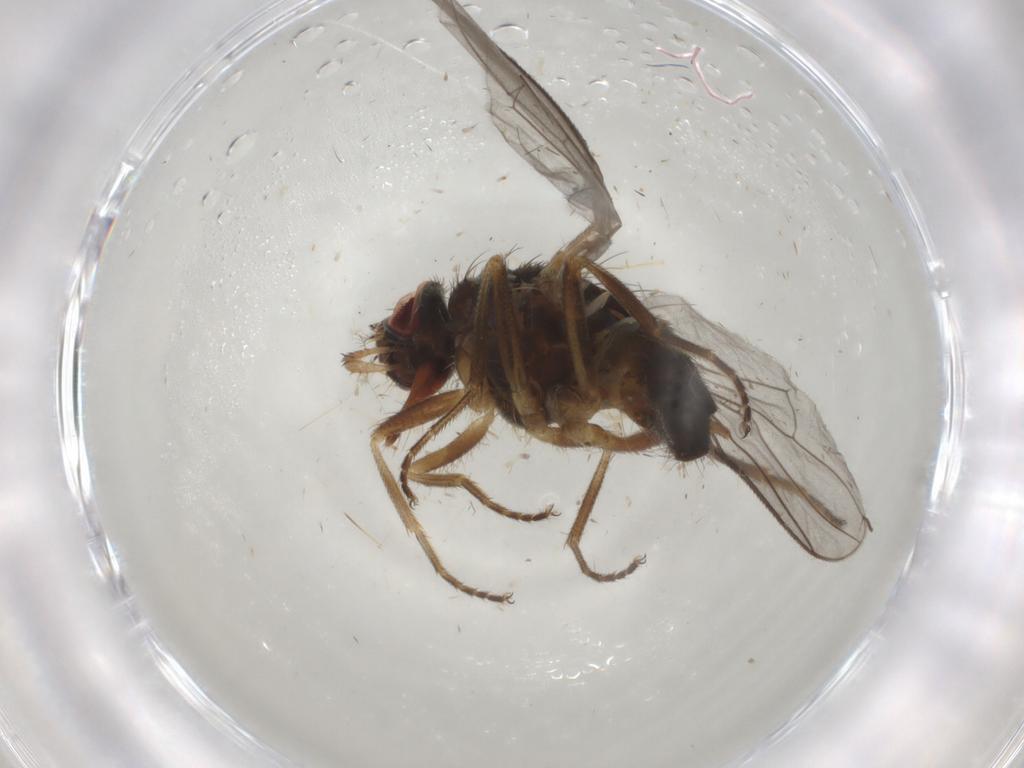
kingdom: Animalia
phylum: Arthropoda
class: Insecta
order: Diptera
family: Muscidae
